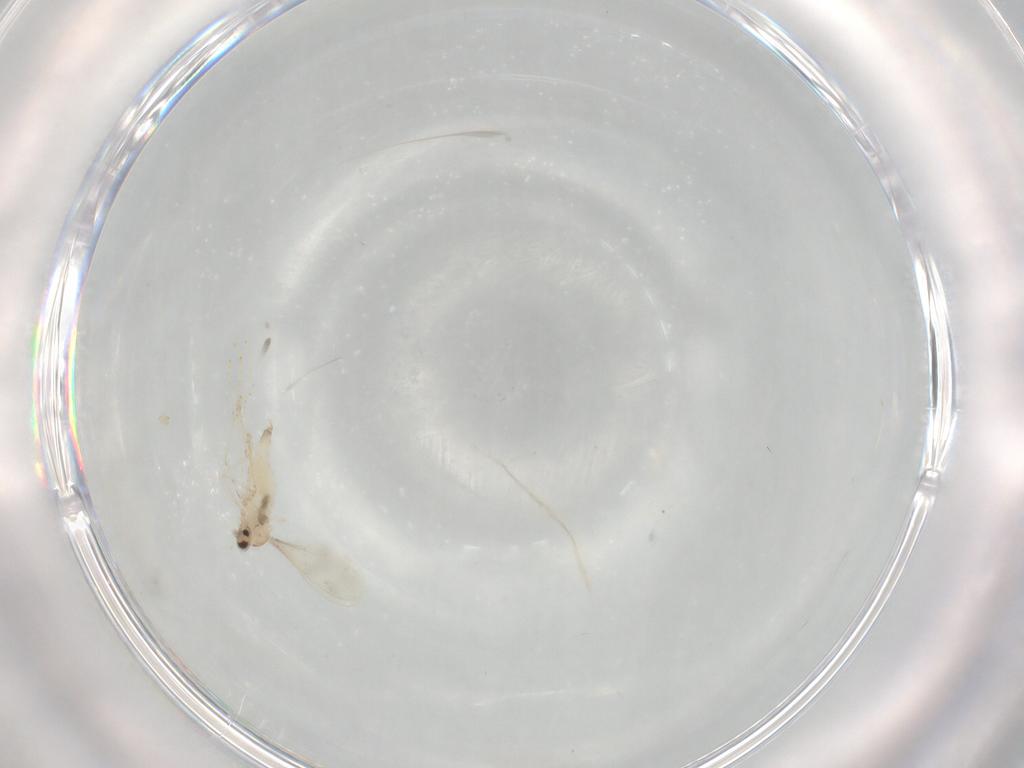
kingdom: Animalia
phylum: Arthropoda
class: Insecta
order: Diptera
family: Cecidomyiidae
